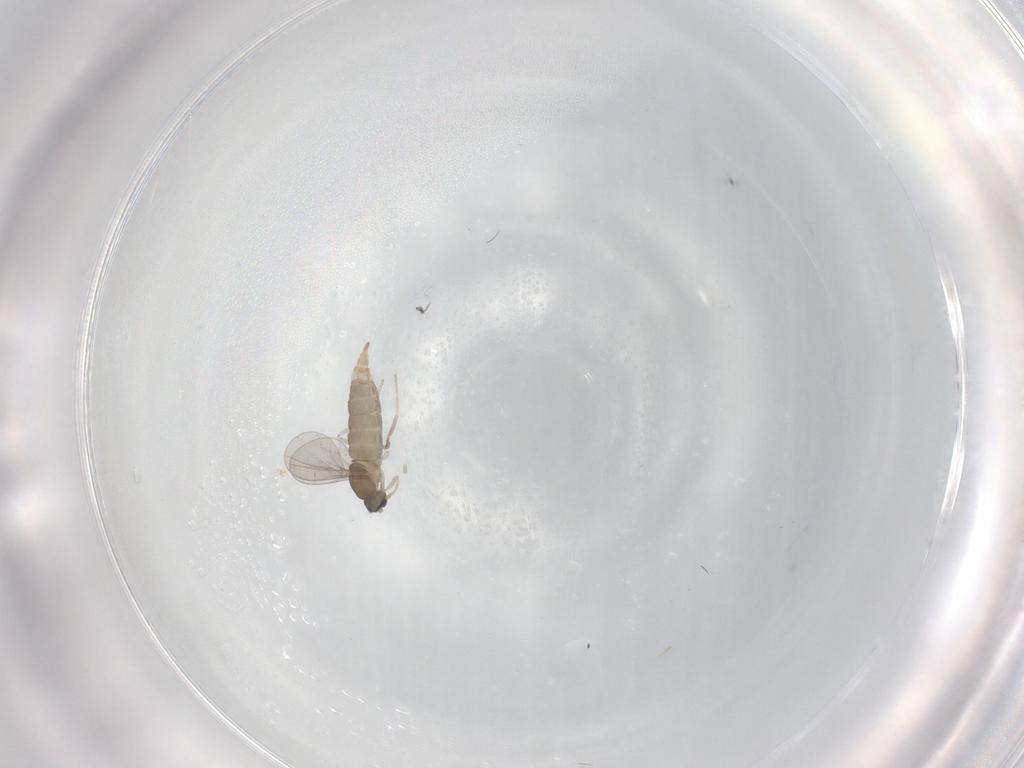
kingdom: Animalia
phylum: Arthropoda
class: Insecta
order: Diptera
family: Cecidomyiidae
